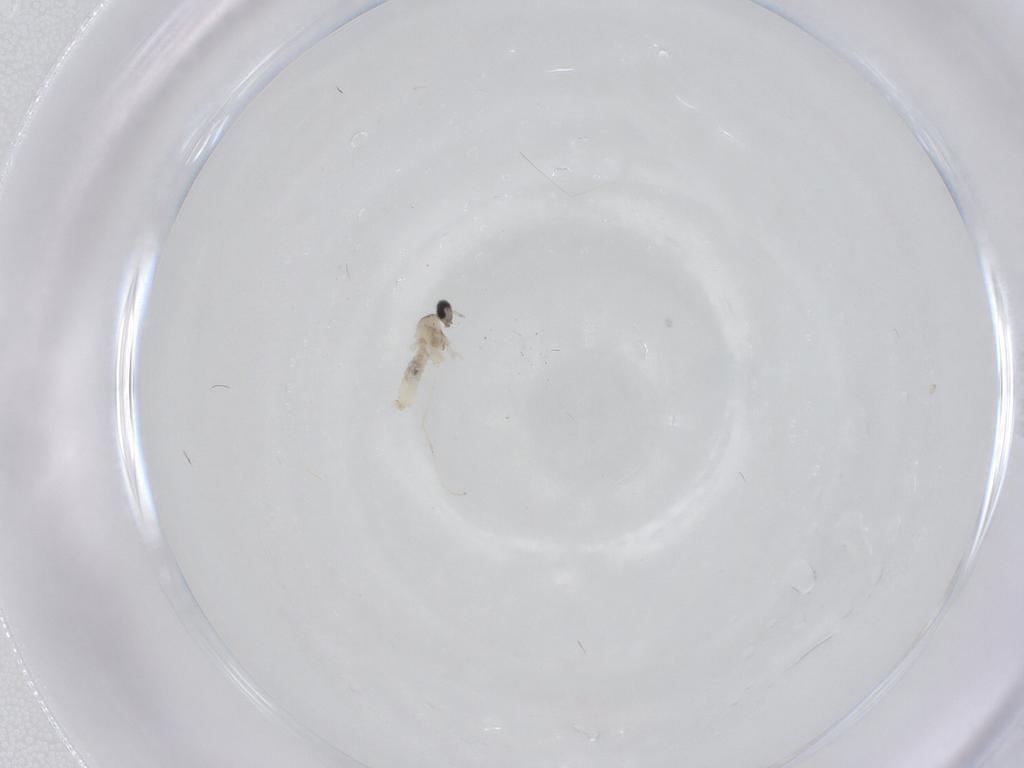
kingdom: Animalia
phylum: Arthropoda
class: Insecta
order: Diptera
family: Cecidomyiidae
